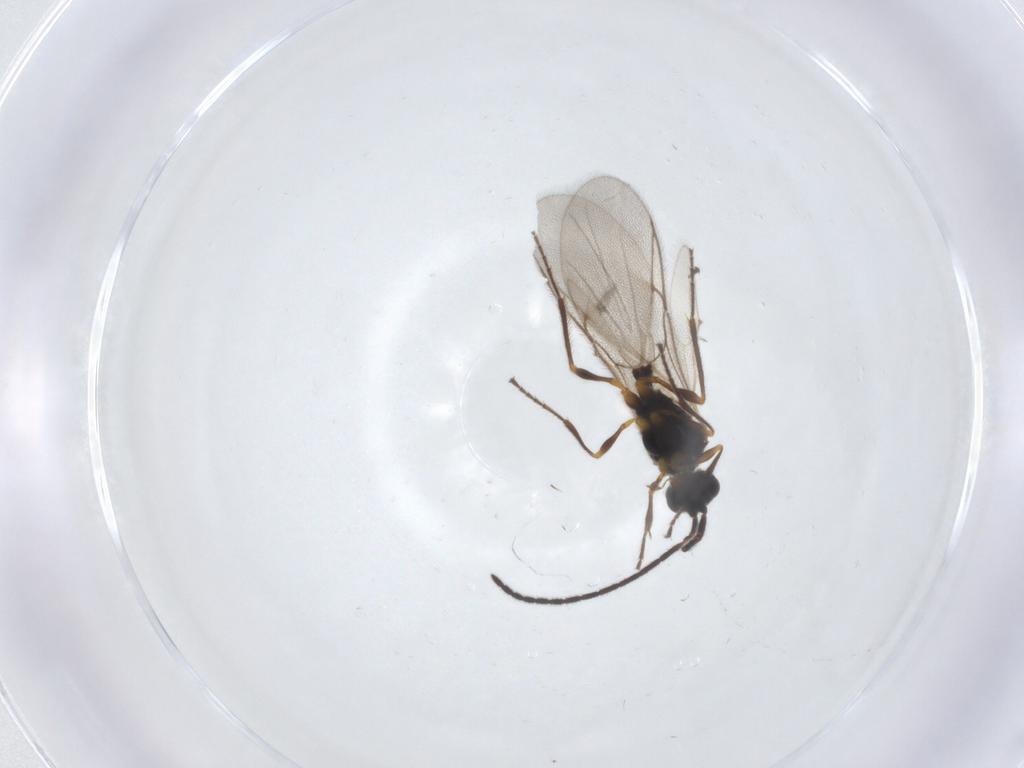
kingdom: Animalia
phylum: Arthropoda
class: Insecta
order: Hymenoptera
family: Diapriidae
